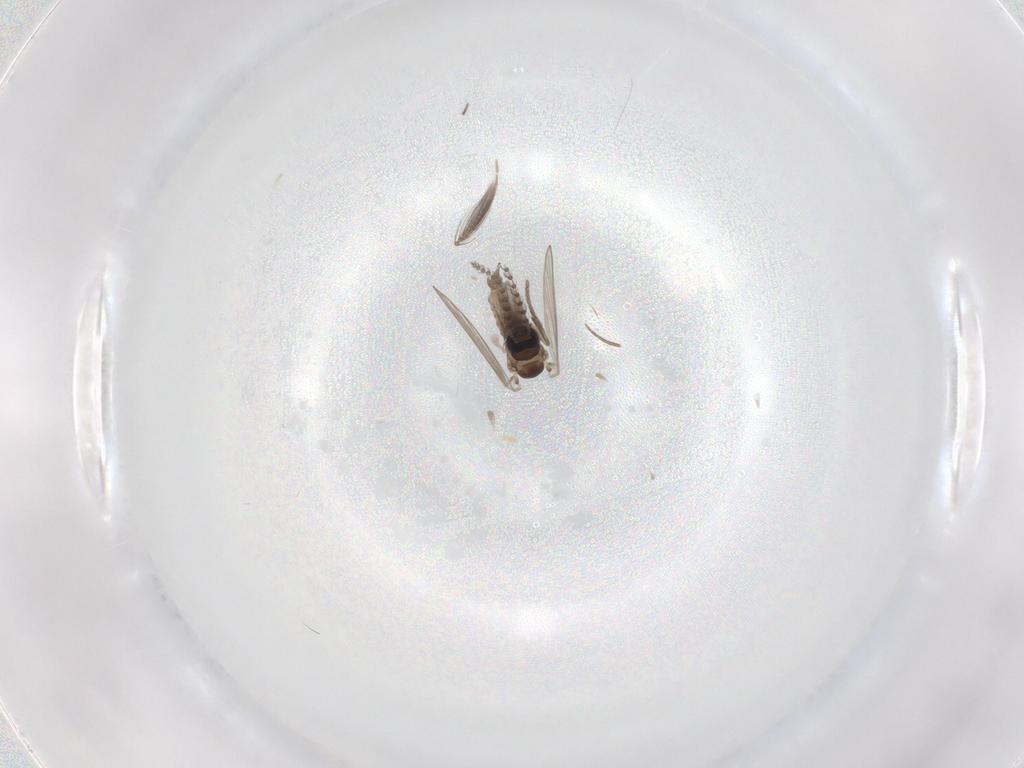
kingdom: Animalia
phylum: Arthropoda
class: Insecta
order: Diptera
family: Psychodidae
